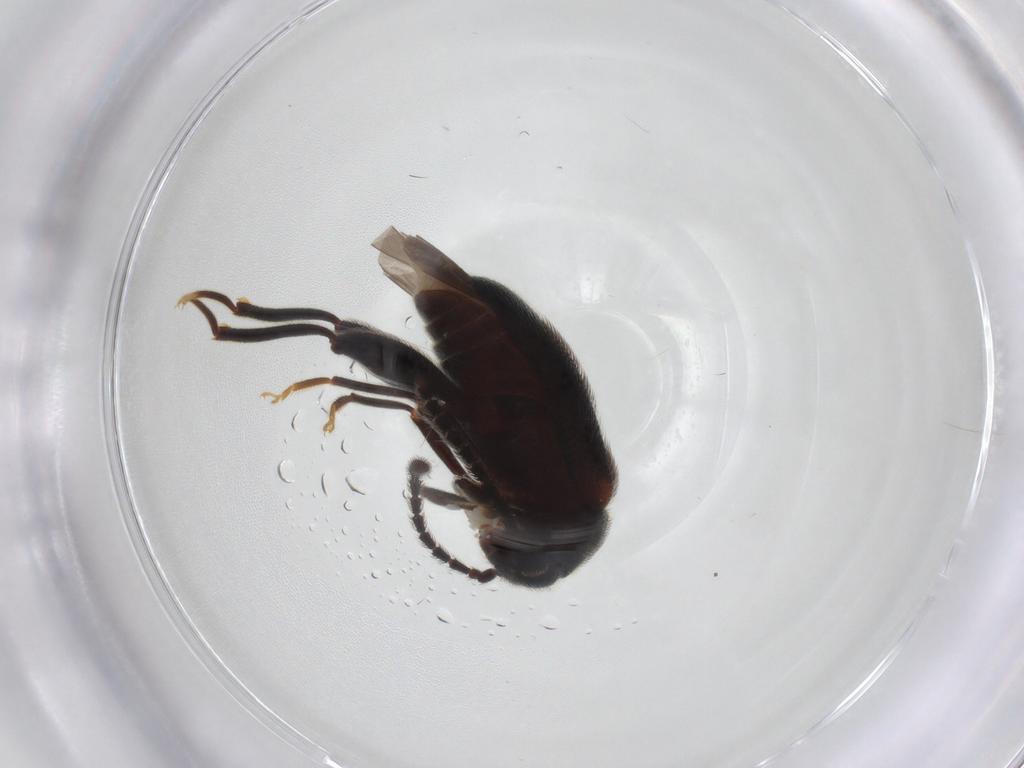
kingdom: Animalia
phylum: Arthropoda
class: Insecta
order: Coleoptera
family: Aderidae
